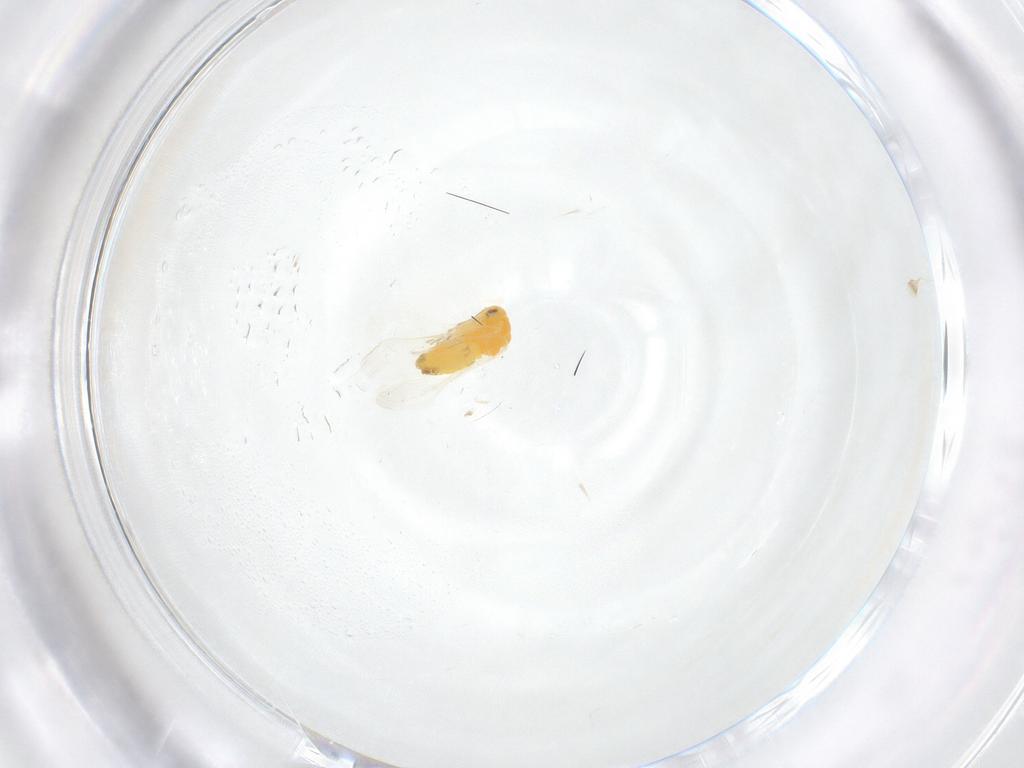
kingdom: Animalia
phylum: Arthropoda
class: Insecta
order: Hemiptera
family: Aleyrodidae
